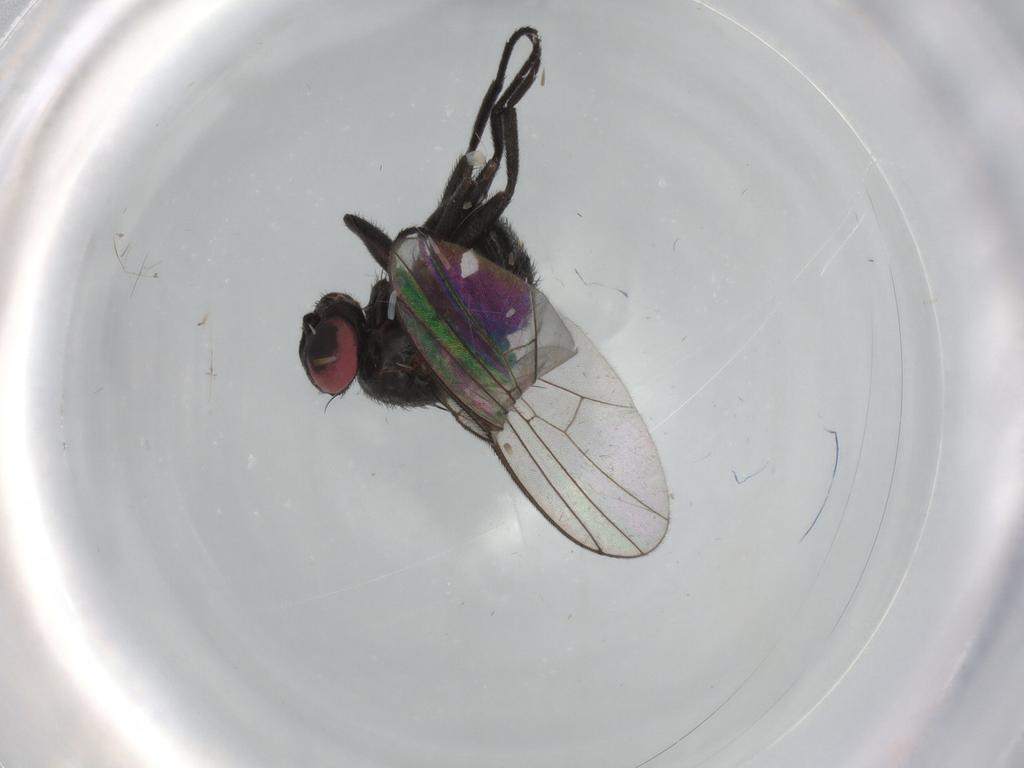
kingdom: Animalia
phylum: Arthropoda
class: Insecta
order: Diptera
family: Agromyzidae
